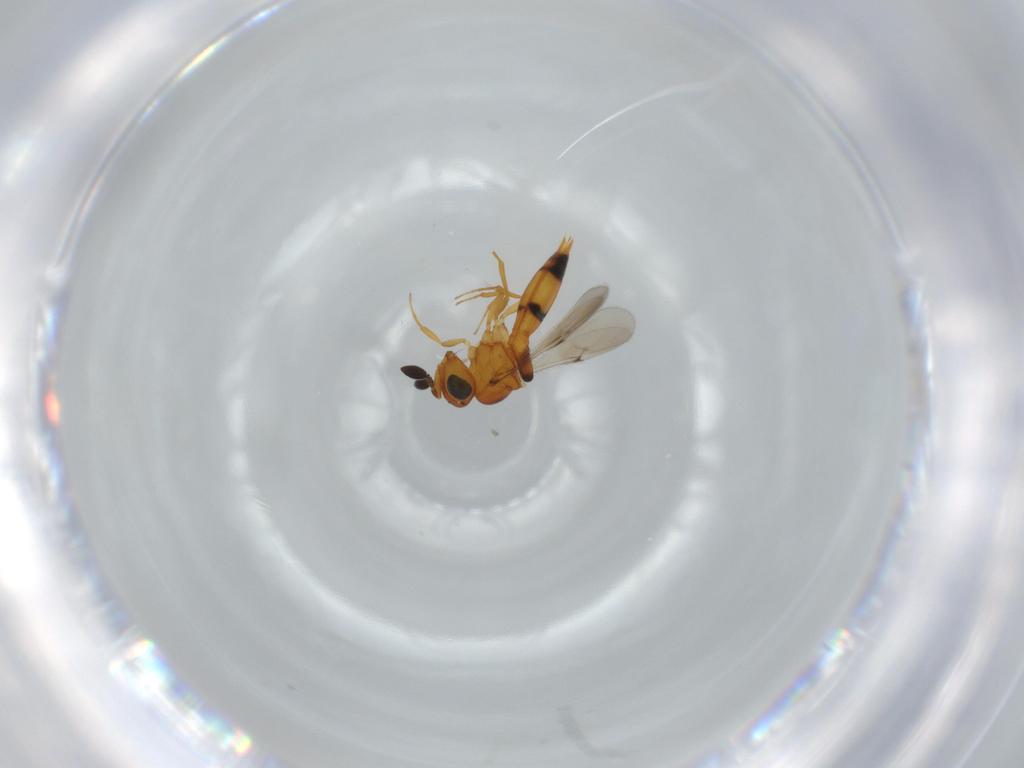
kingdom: Animalia
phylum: Arthropoda
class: Insecta
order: Hymenoptera
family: Scelionidae
